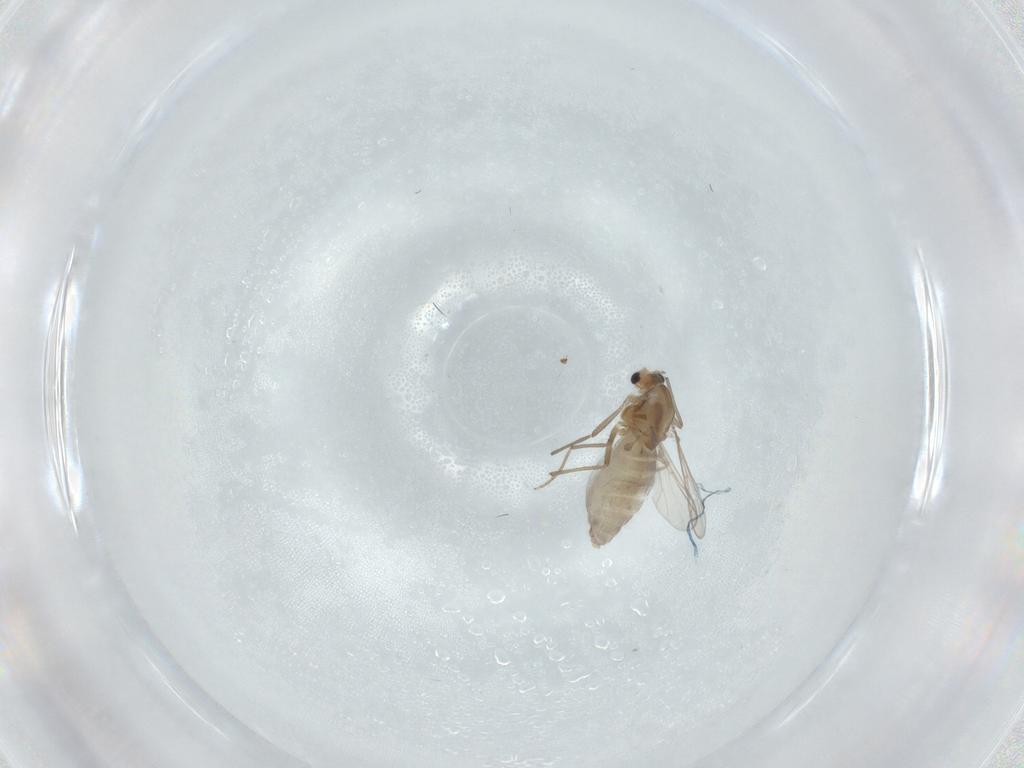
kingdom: Animalia
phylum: Arthropoda
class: Insecta
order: Diptera
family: Chironomidae
